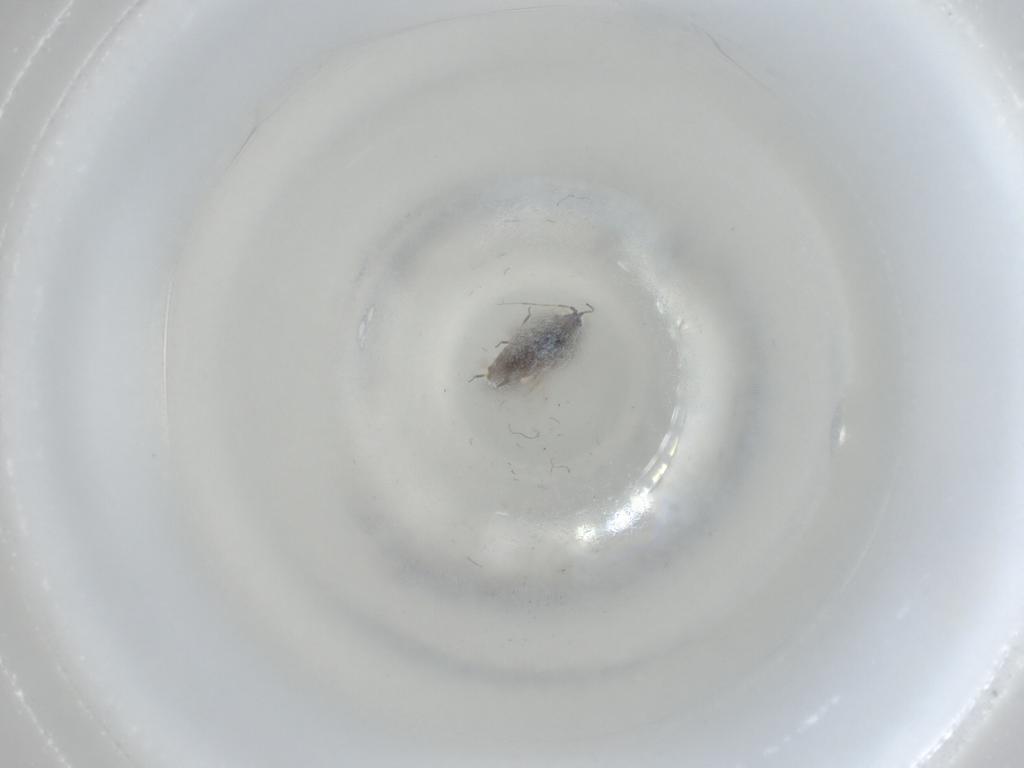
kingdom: Animalia
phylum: Arthropoda
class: Insecta
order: Hemiptera
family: Aphididae
